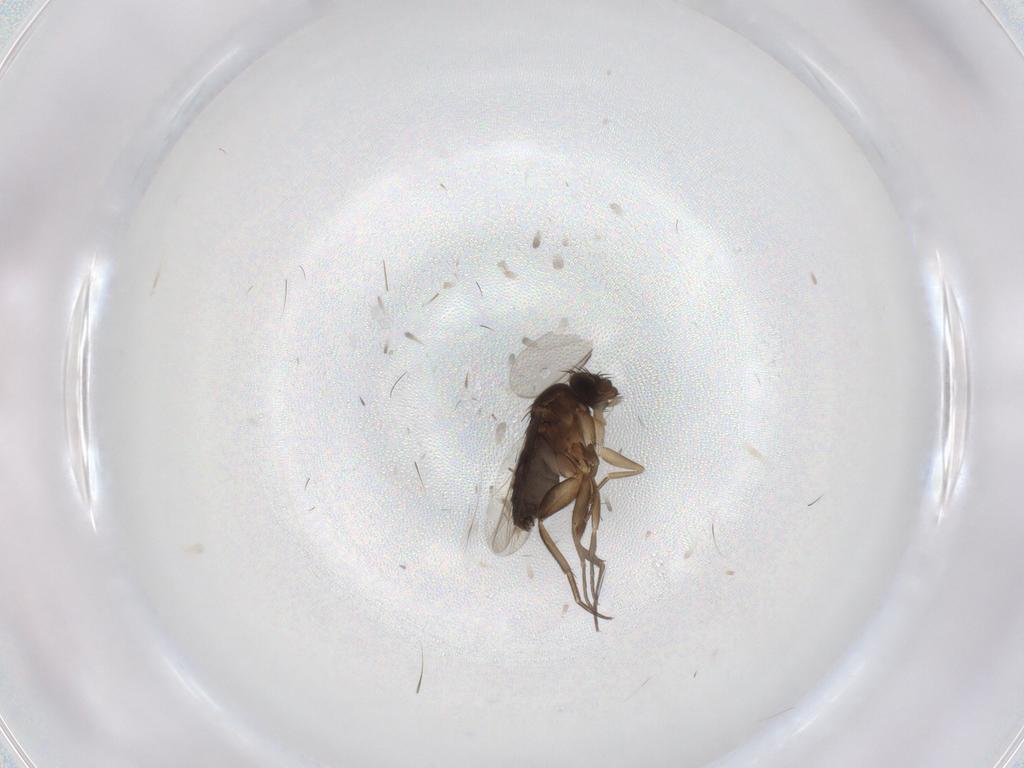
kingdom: Animalia
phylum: Arthropoda
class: Insecta
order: Diptera
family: Phoridae
